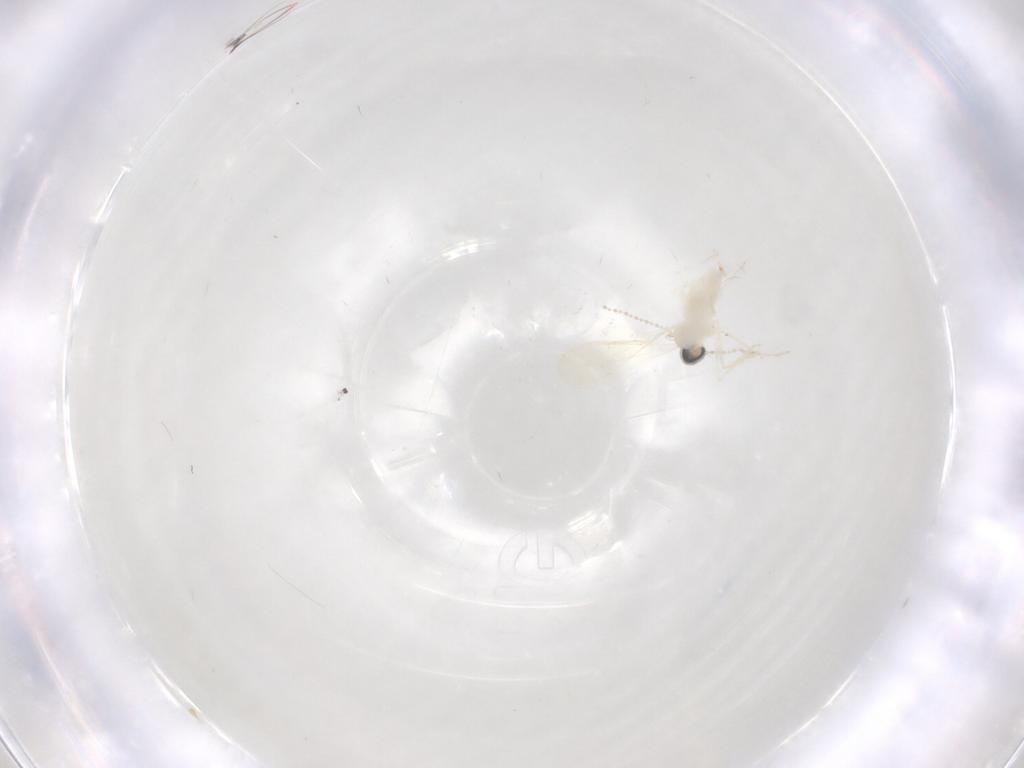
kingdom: Animalia
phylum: Arthropoda
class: Insecta
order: Diptera
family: Cecidomyiidae
